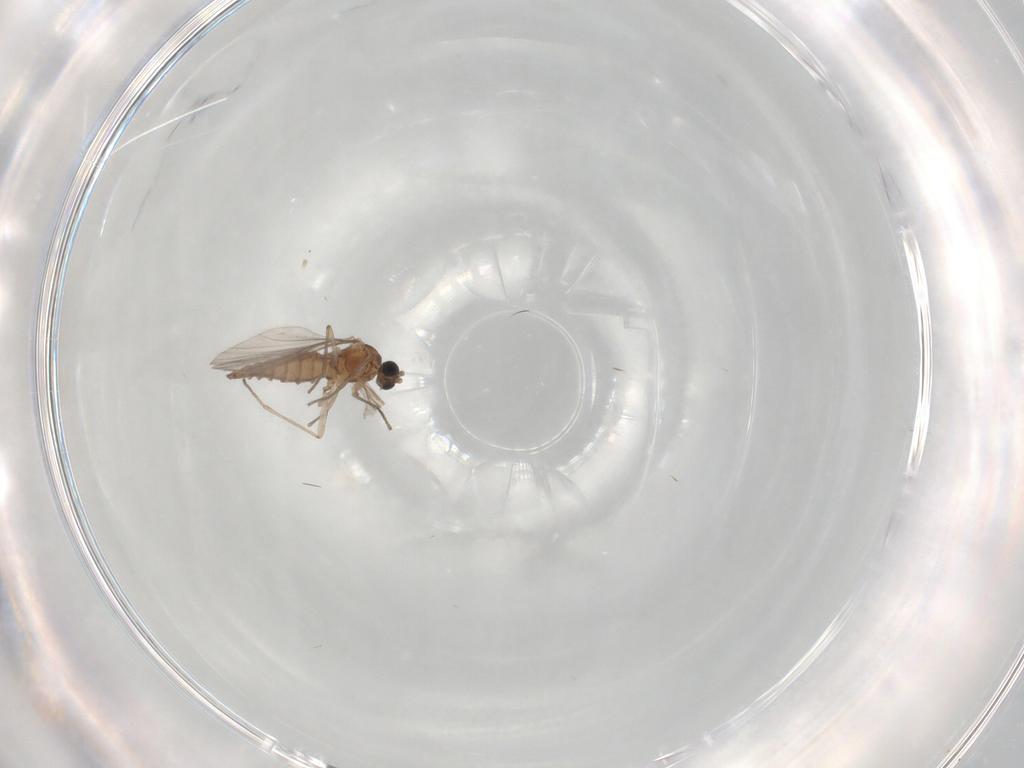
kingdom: Animalia
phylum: Arthropoda
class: Insecta
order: Diptera
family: Sciaridae
